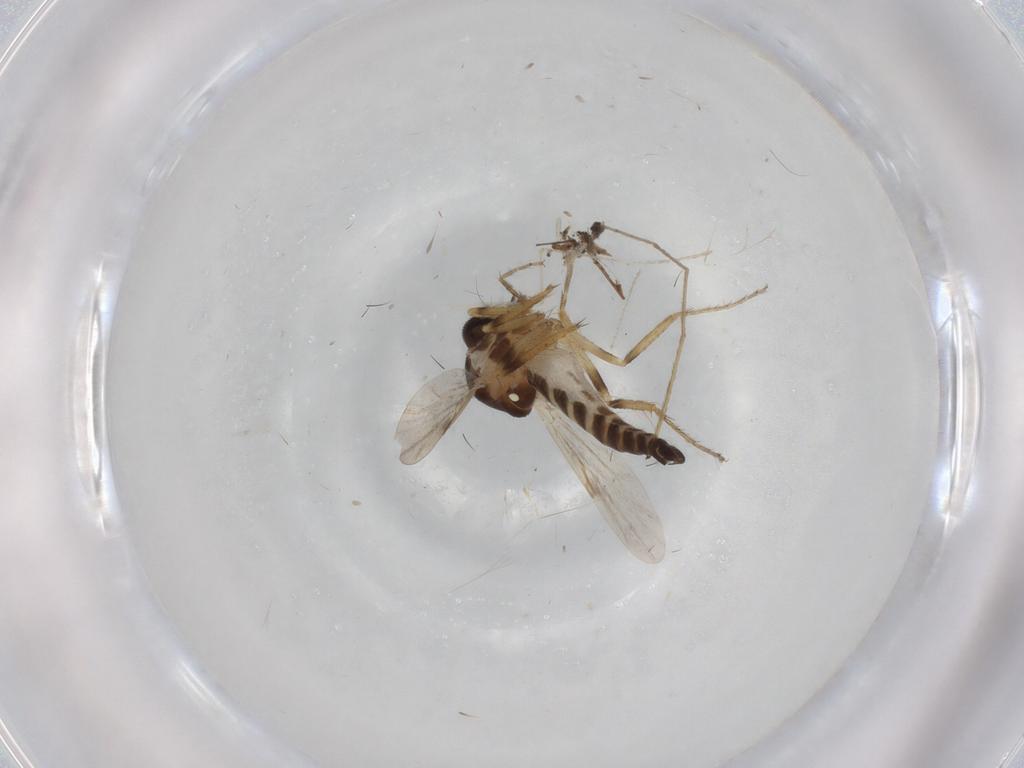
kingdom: Animalia
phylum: Arthropoda
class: Insecta
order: Diptera
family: Ceratopogonidae
